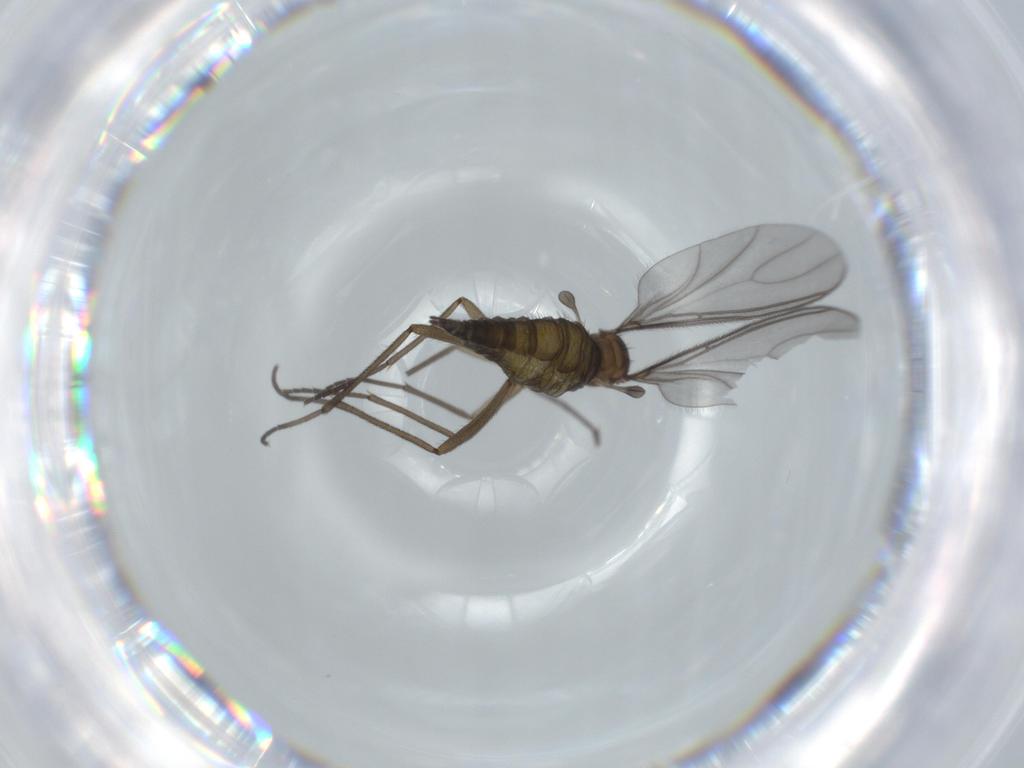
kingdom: Animalia
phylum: Arthropoda
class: Insecta
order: Diptera
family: Sciaridae
